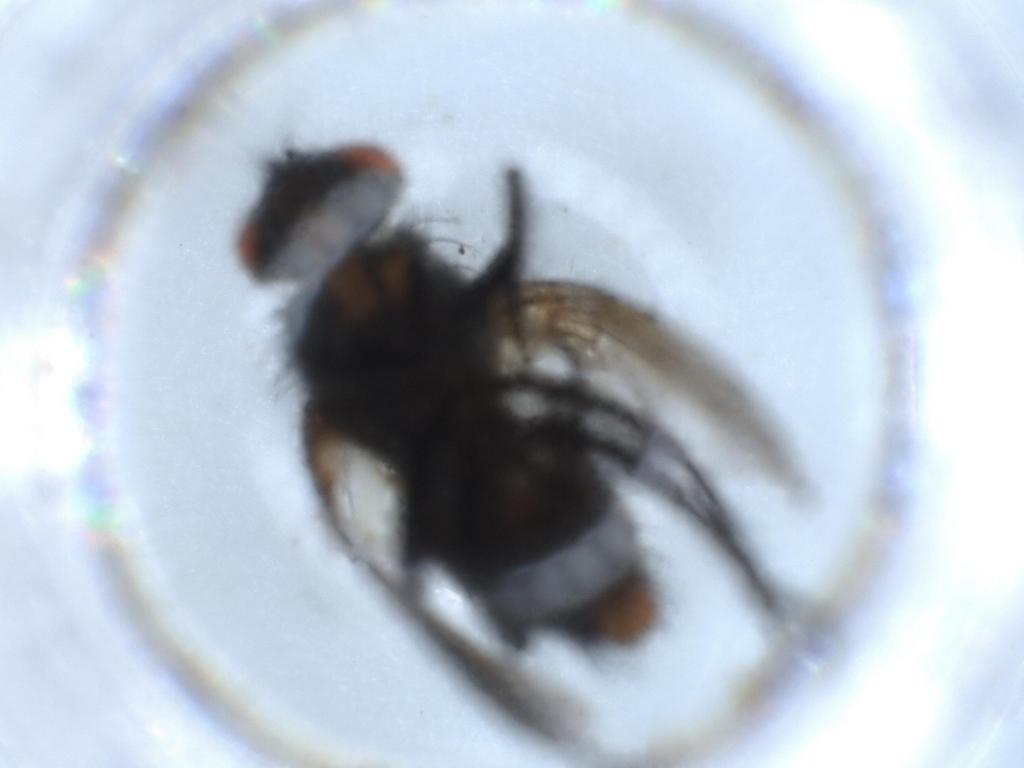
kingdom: Animalia
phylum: Arthropoda
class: Insecta
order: Diptera
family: Sarcophagidae
